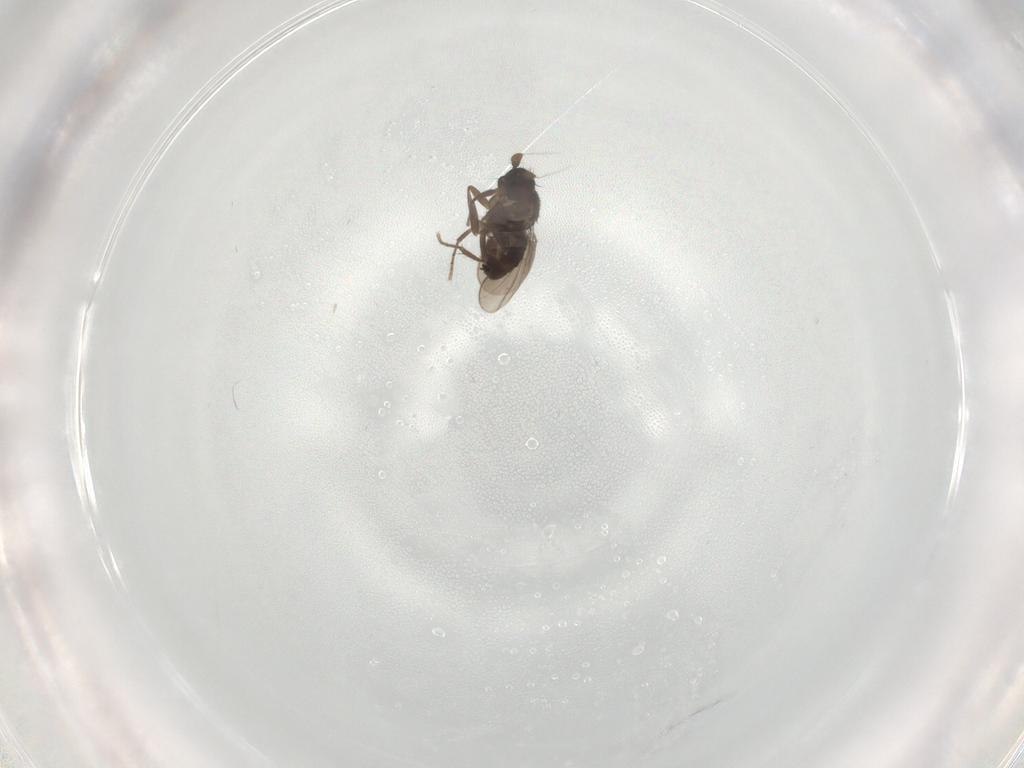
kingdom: Animalia
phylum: Arthropoda
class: Insecta
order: Diptera
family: Sphaeroceridae
